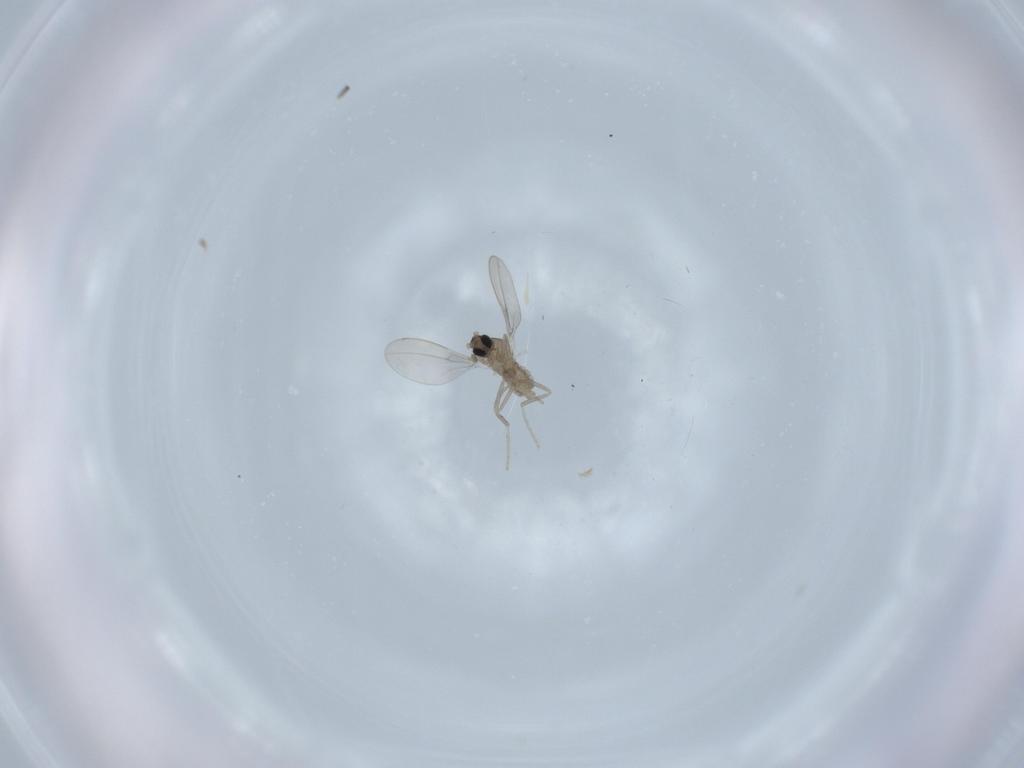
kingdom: Animalia
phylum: Arthropoda
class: Insecta
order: Diptera
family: Cecidomyiidae
